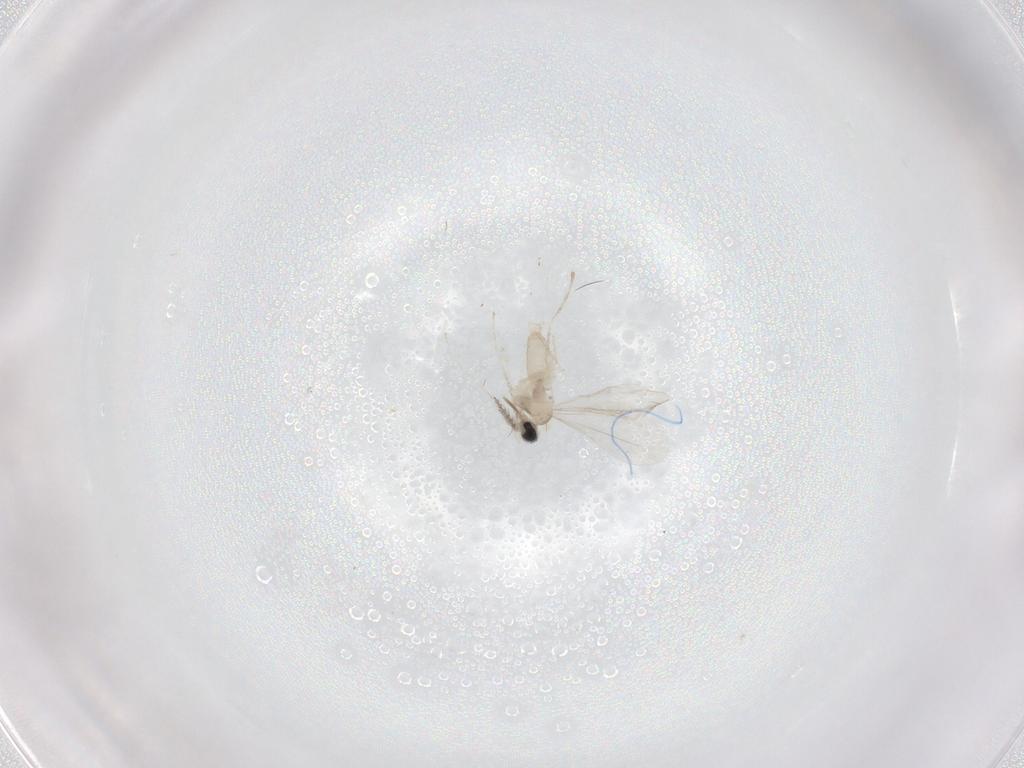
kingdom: Animalia
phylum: Arthropoda
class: Insecta
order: Diptera
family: Cecidomyiidae
